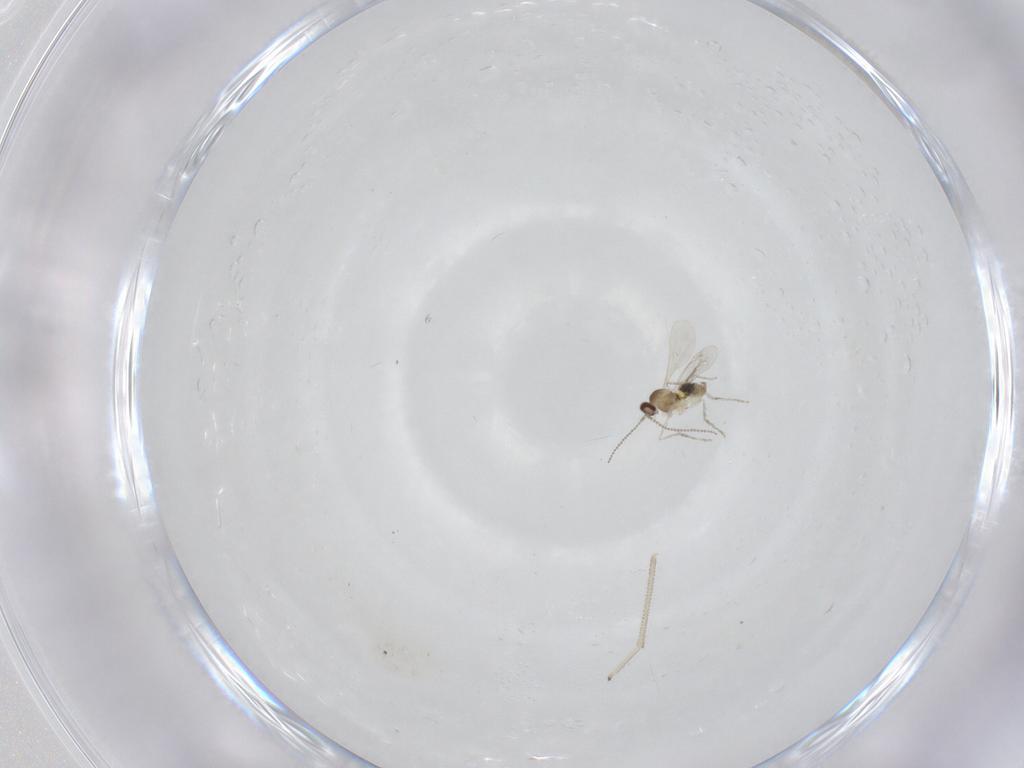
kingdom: Animalia
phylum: Arthropoda
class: Insecta
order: Diptera
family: Cecidomyiidae
